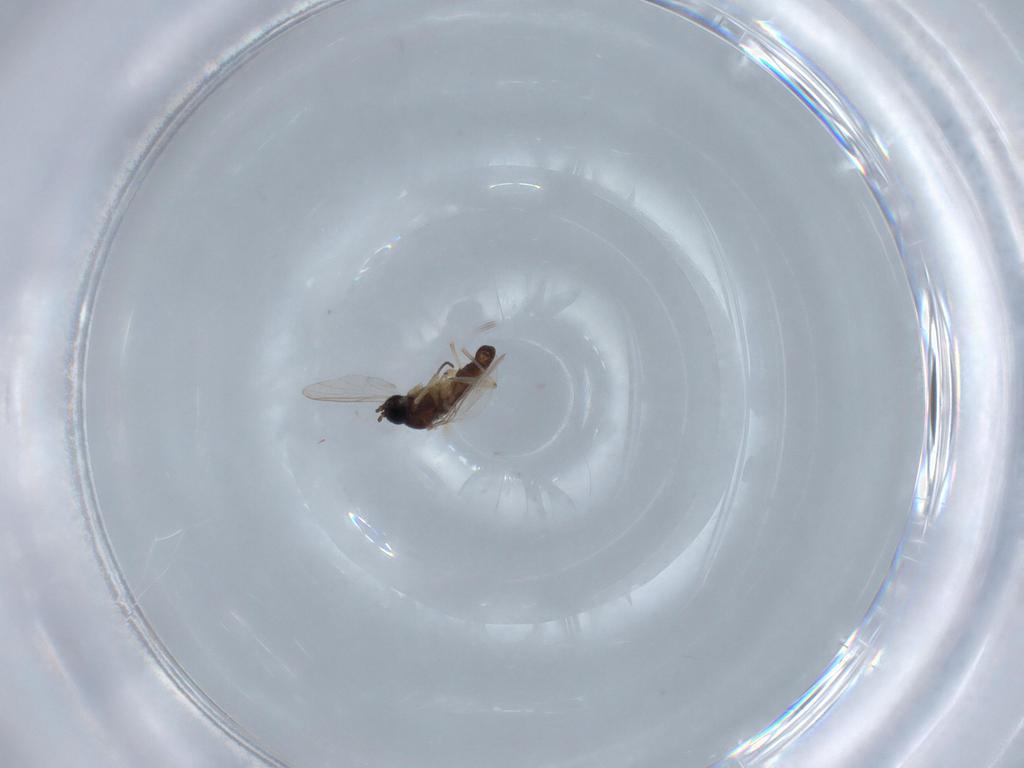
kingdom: Animalia
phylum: Arthropoda
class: Insecta
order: Diptera
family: Sciaridae
